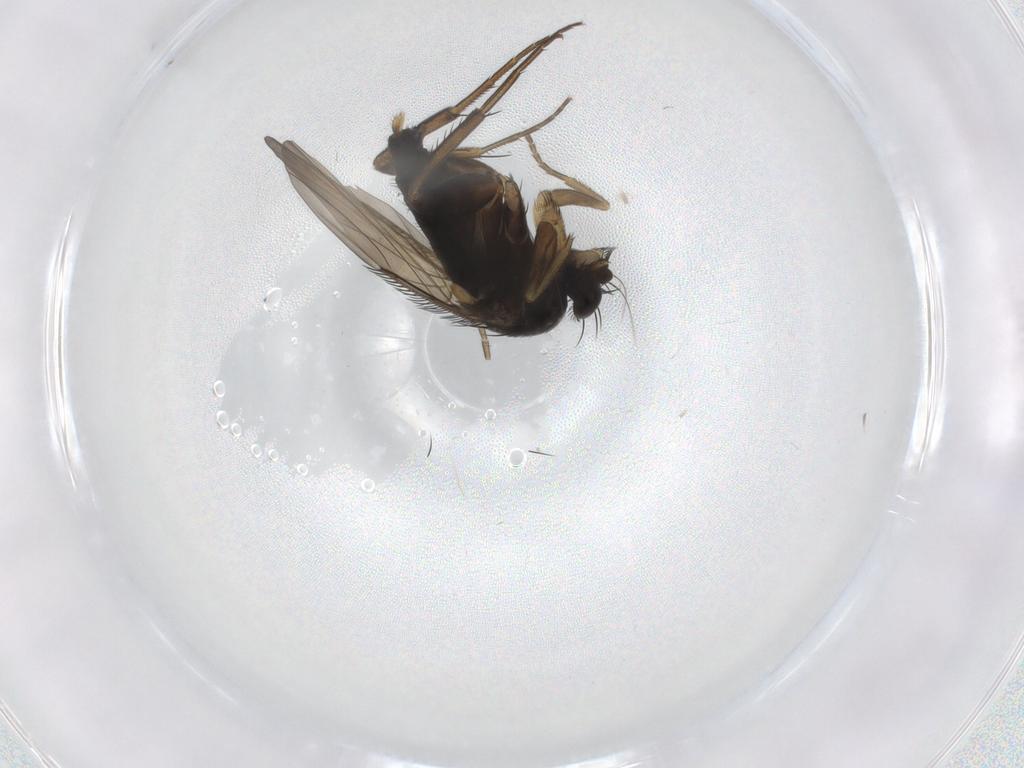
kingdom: Animalia
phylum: Arthropoda
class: Insecta
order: Diptera
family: Phoridae
